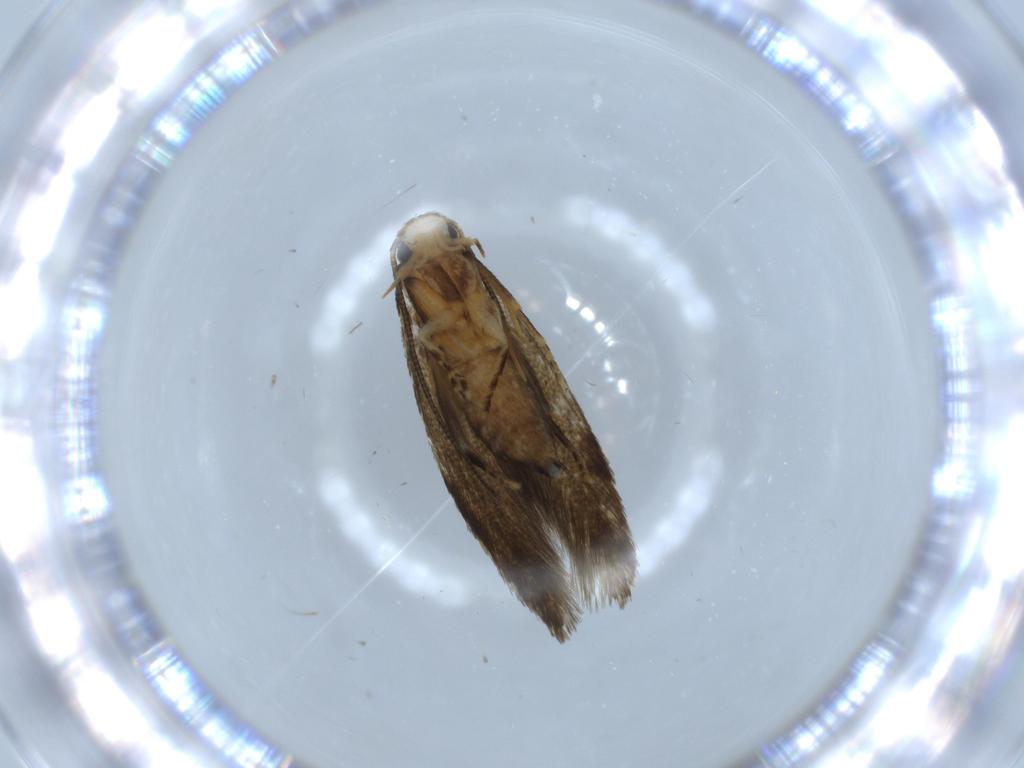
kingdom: Animalia
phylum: Arthropoda
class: Insecta
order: Lepidoptera
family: Tineidae
